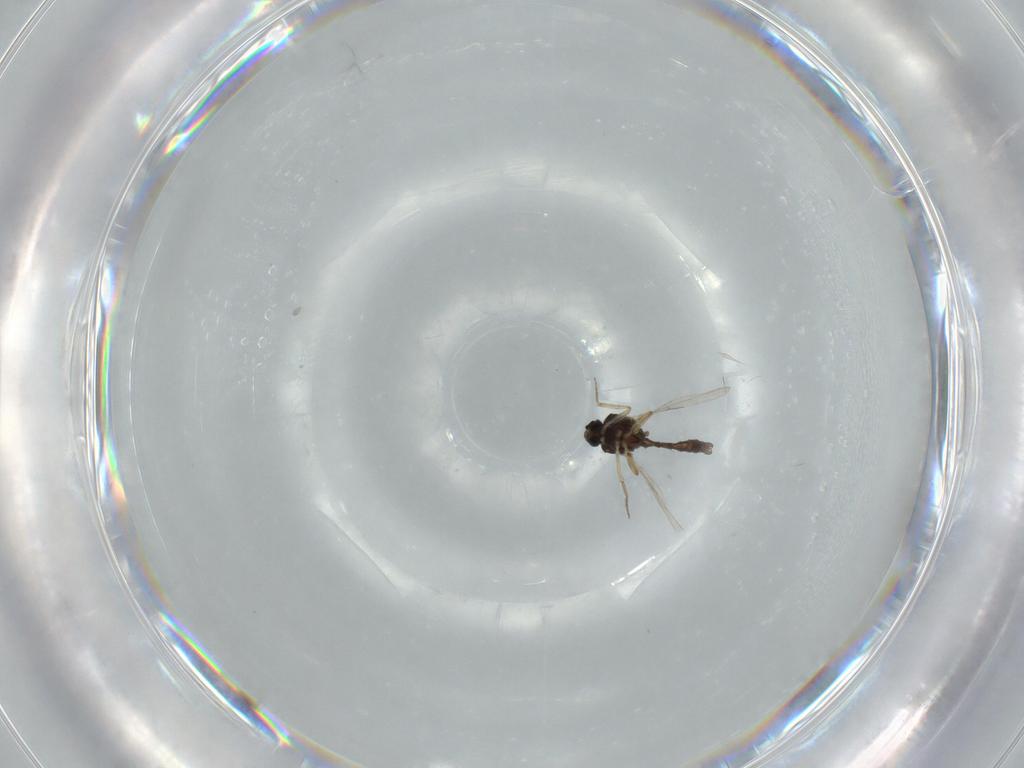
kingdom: Animalia
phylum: Arthropoda
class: Insecta
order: Diptera
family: Ceratopogonidae
